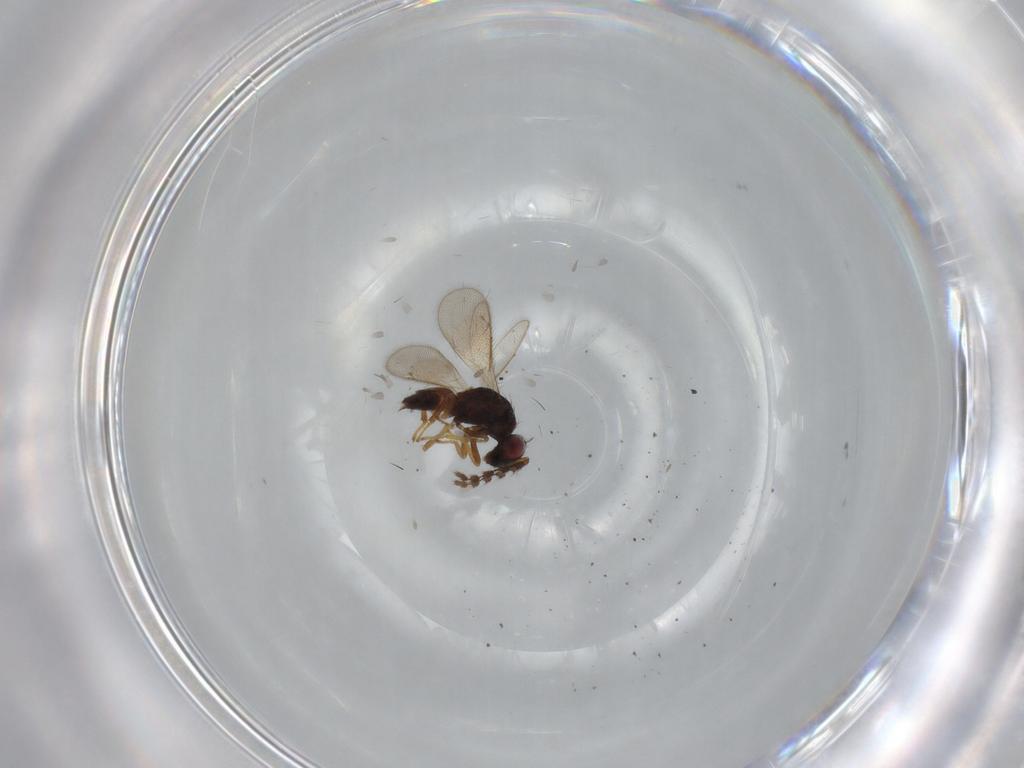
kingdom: Animalia
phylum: Arthropoda
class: Insecta
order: Hymenoptera
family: Eulophidae
